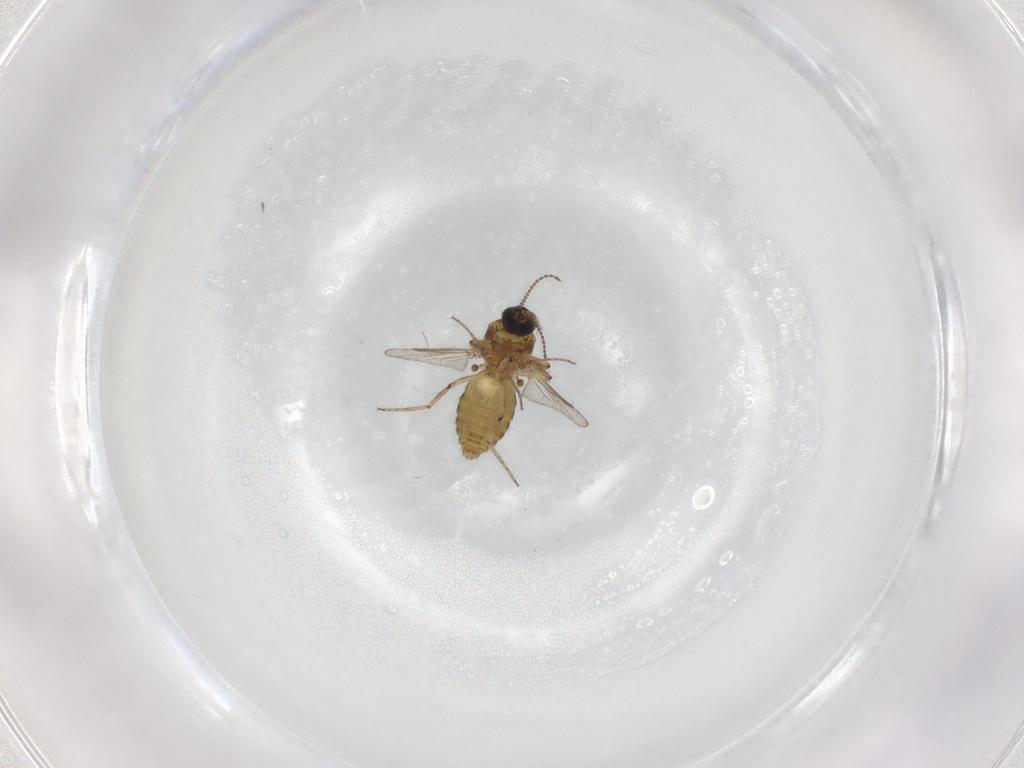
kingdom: Animalia
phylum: Arthropoda
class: Insecta
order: Diptera
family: Ceratopogonidae
